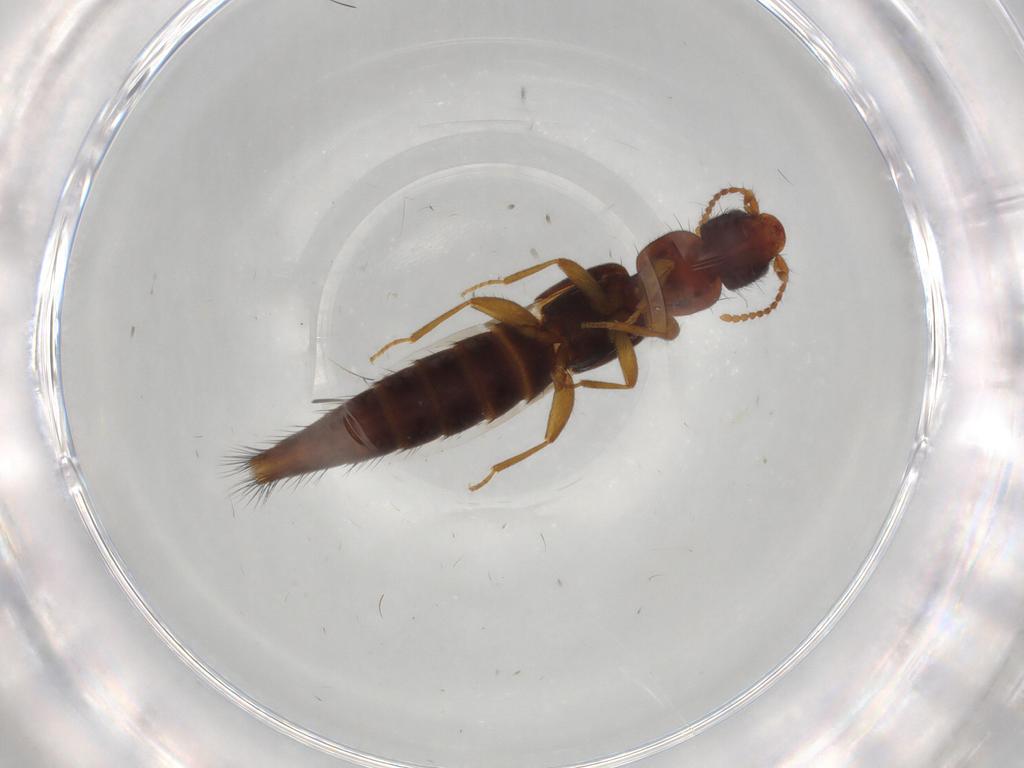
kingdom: Animalia
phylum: Arthropoda
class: Insecta
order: Coleoptera
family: Staphylinidae
